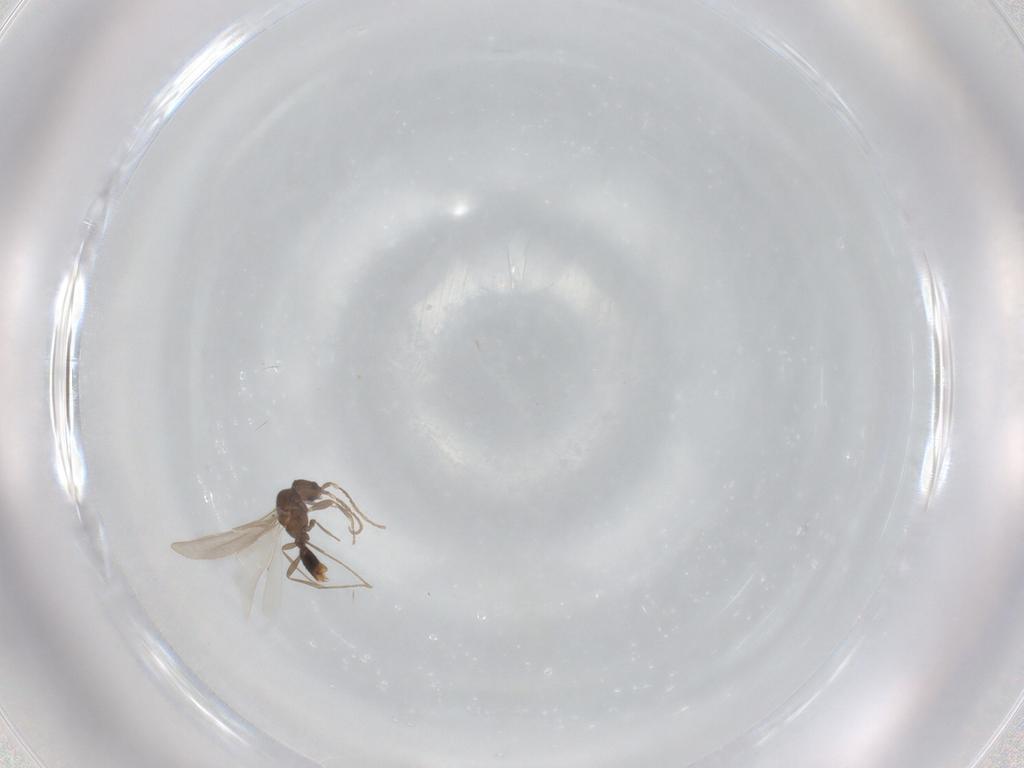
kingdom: Animalia
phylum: Arthropoda
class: Insecta
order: Hymenoptera
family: Formicidae
